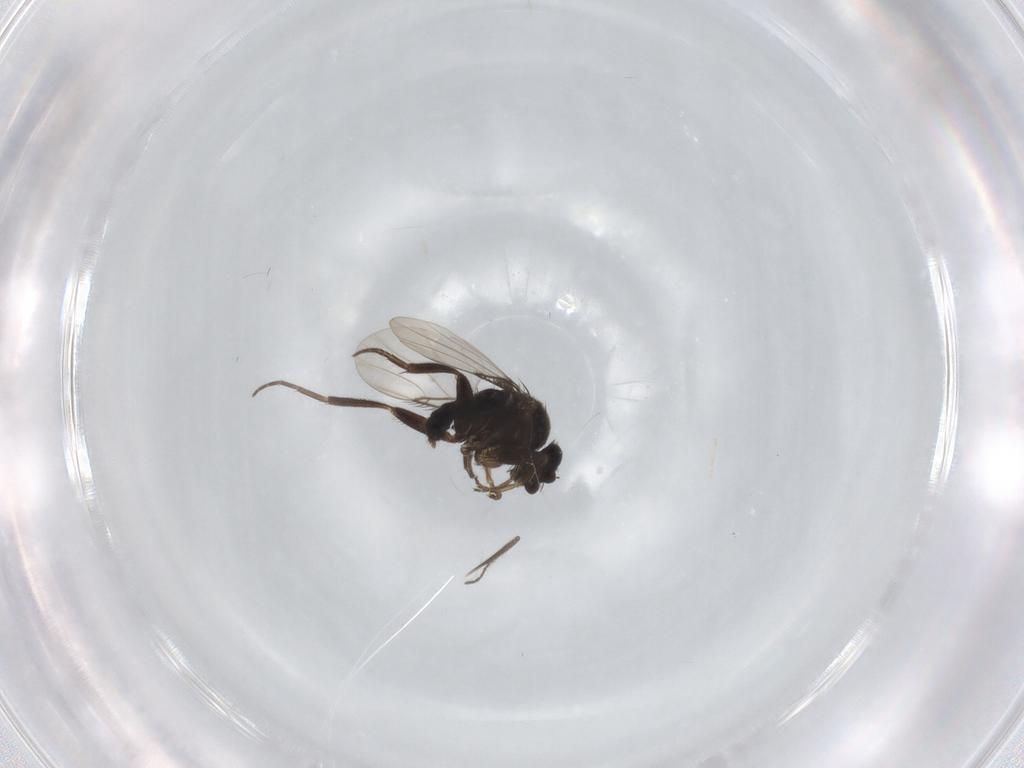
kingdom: Animalia
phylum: Arthropoda
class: Insecta
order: Diptera
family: Phoridae
